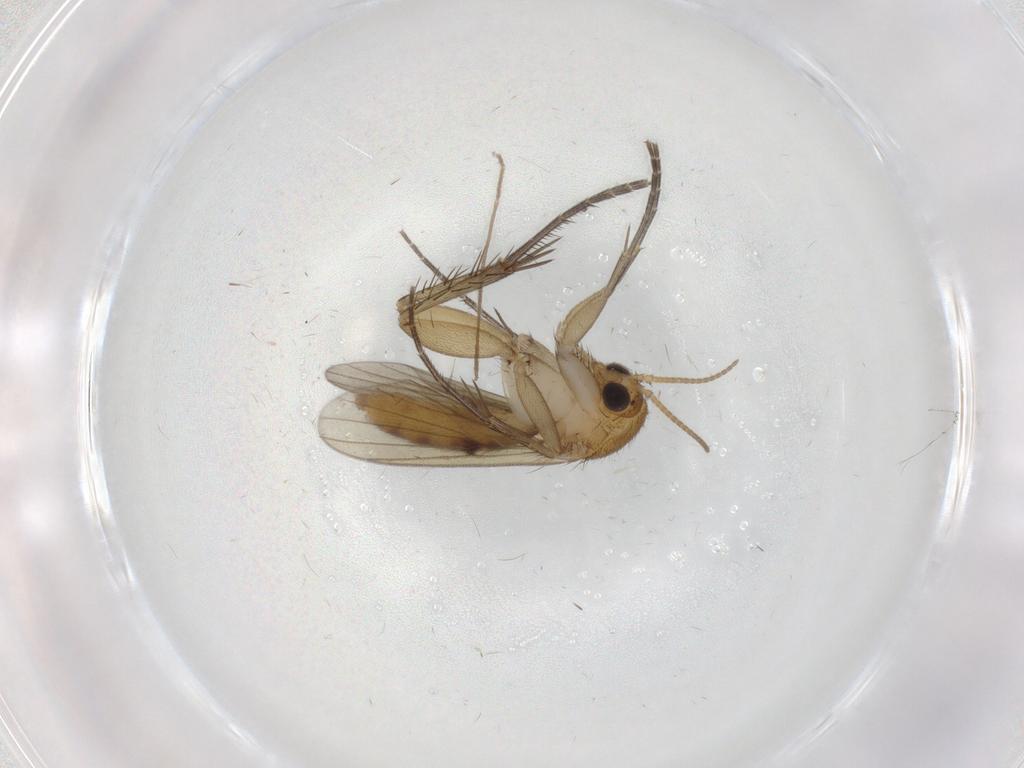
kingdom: Animalia
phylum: Arthropoda
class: Insecta
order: Diptera
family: Mycetophilidae
